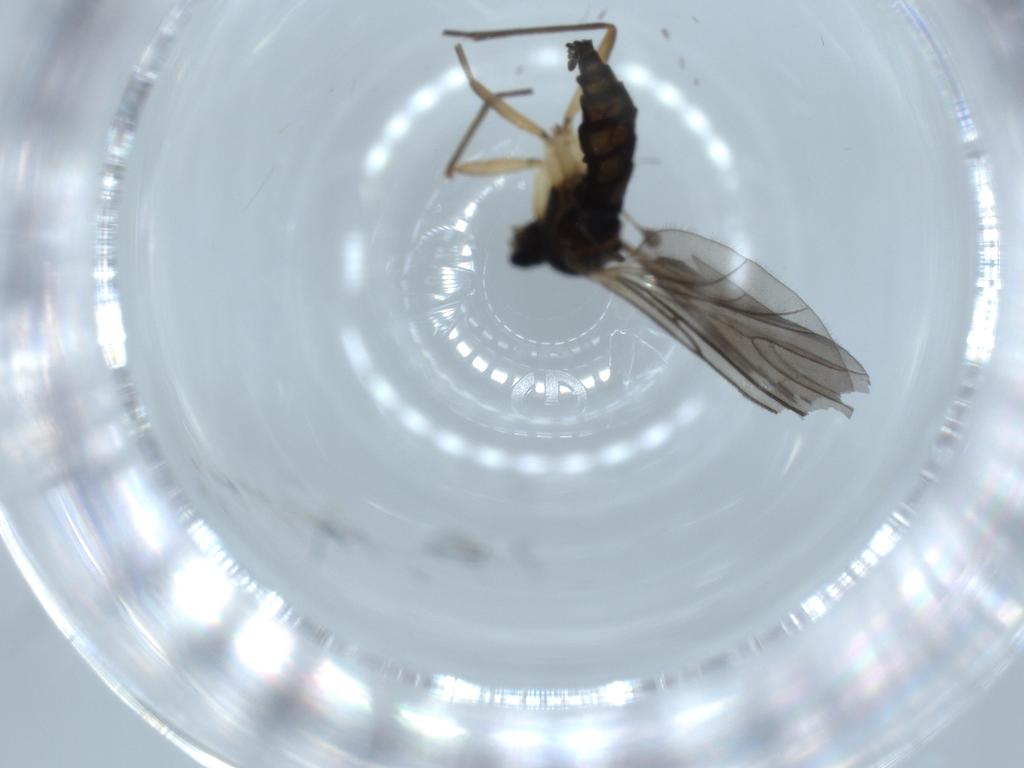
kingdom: Animalia
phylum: Arthropoda
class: Insecta
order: Diptera
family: Sciaridae
